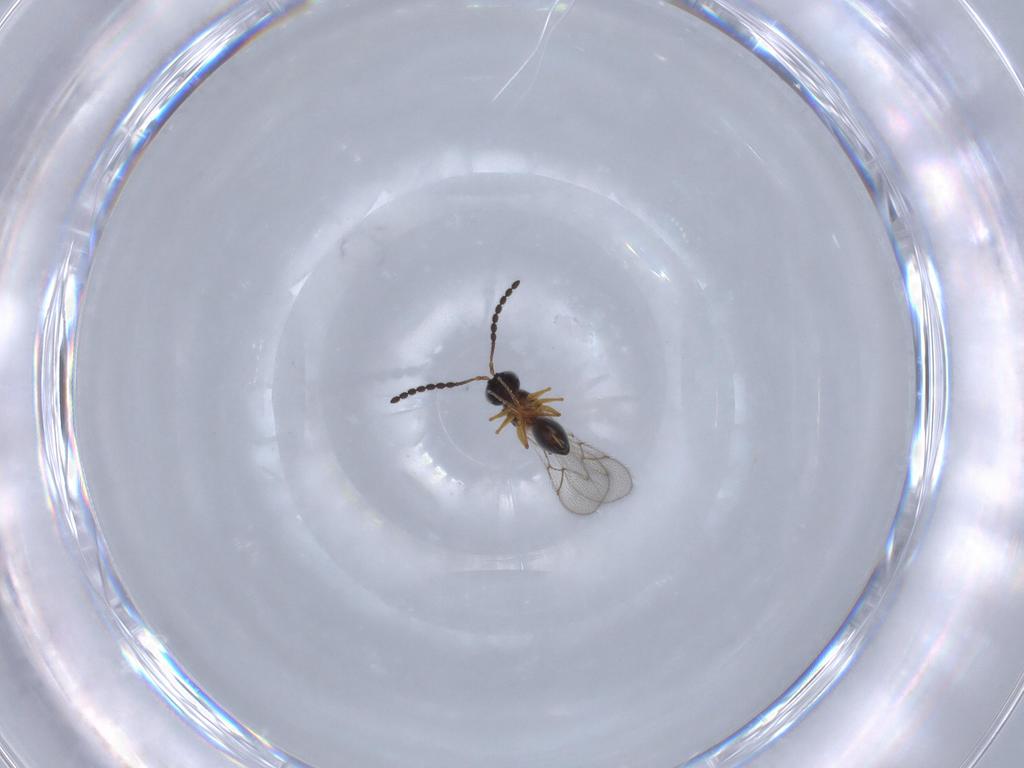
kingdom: Animalia
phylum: Arthropoda
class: Insecta
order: Hymenoptera
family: Figitidae
